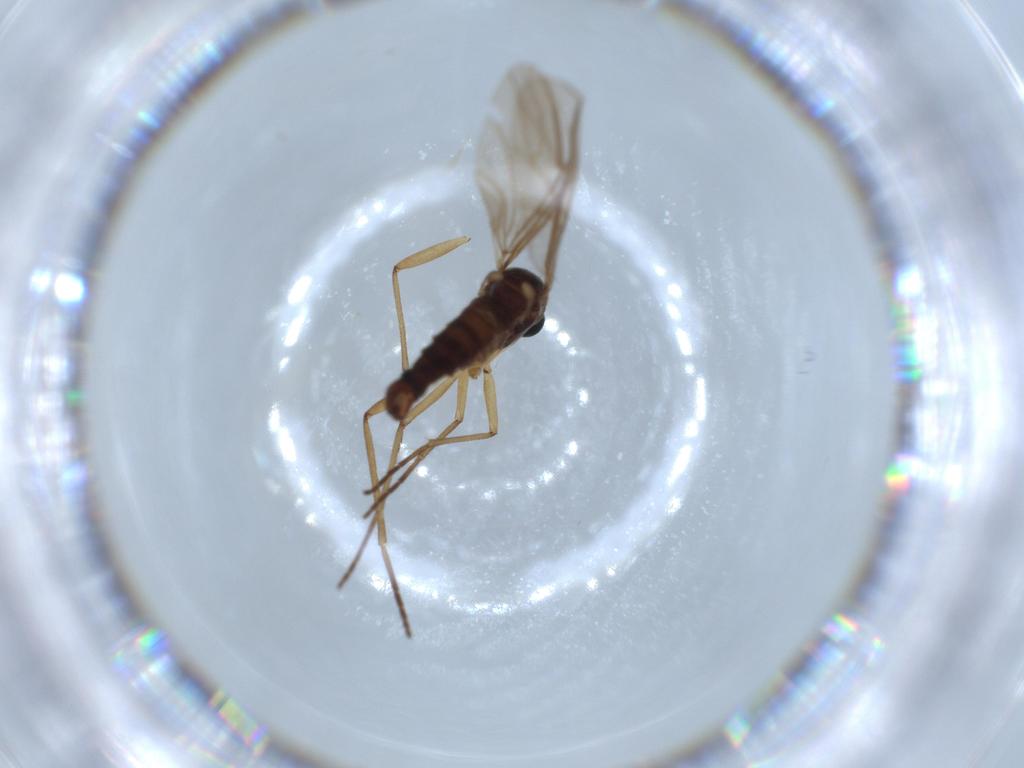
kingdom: Animalia
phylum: Arthropoda
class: Insecta
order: Diptera
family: Sciaridae
